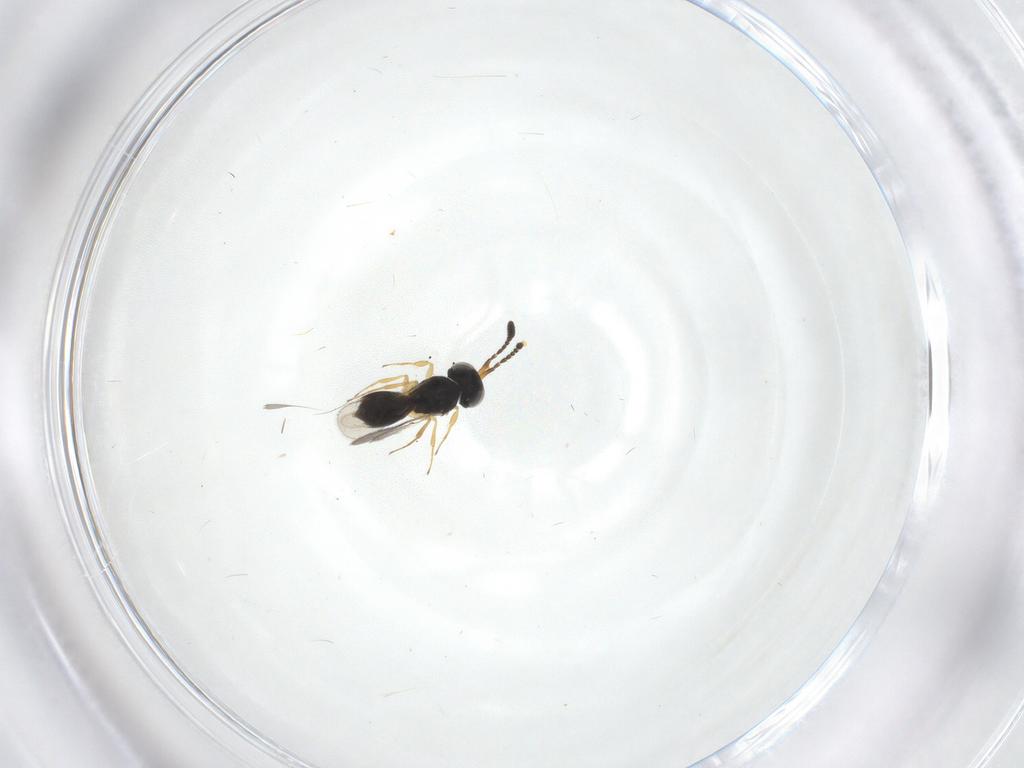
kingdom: Animalia
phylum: Arthropoda
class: Insecta
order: Hymenoptera
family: Scelionidae
